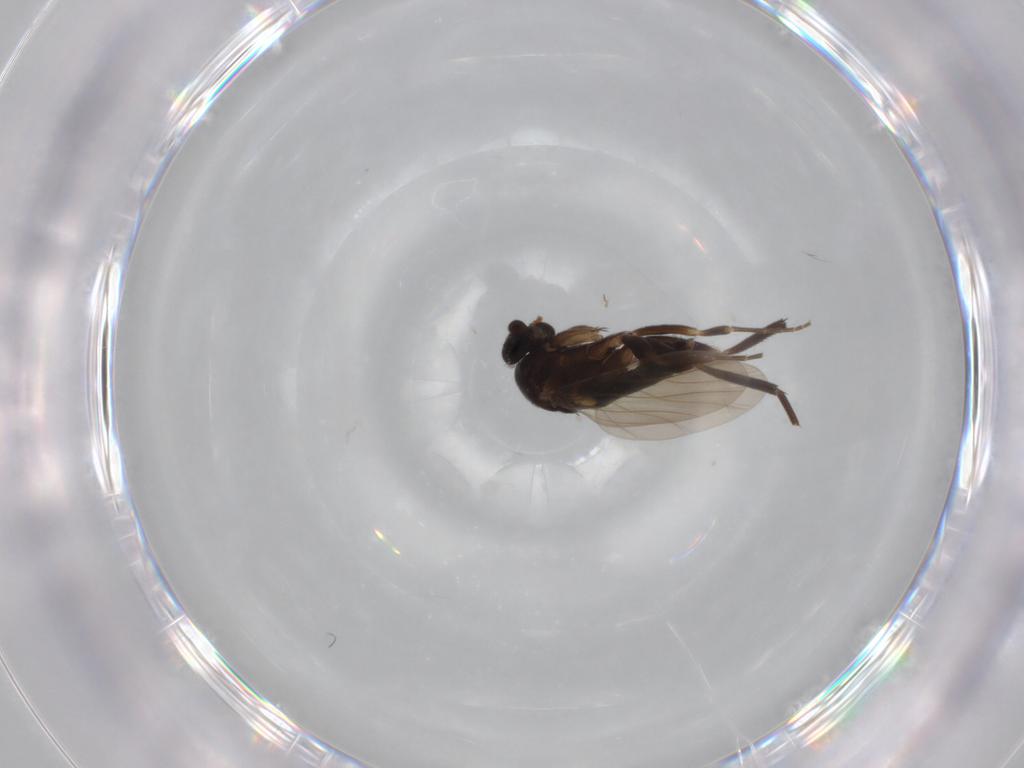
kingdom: Animalia
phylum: Arthropoda
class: Insecta
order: Diptera
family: Phoridae
